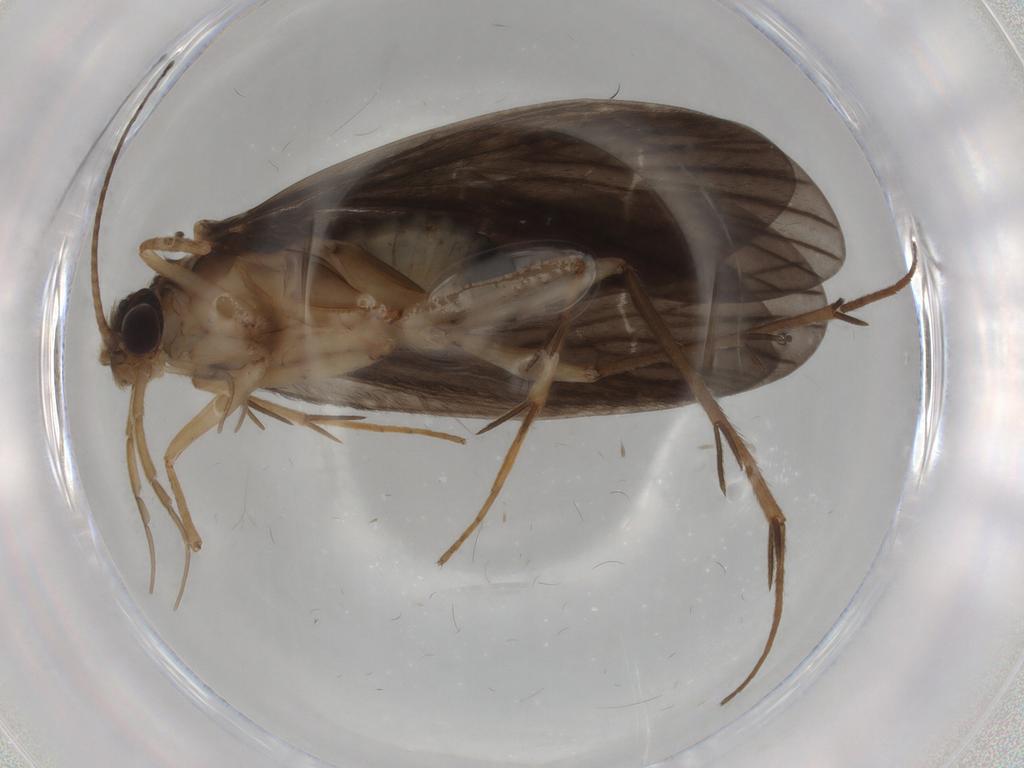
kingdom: Animalia
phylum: Arthropoda
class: Insecta
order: Trichoptera
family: Philopotamidae
